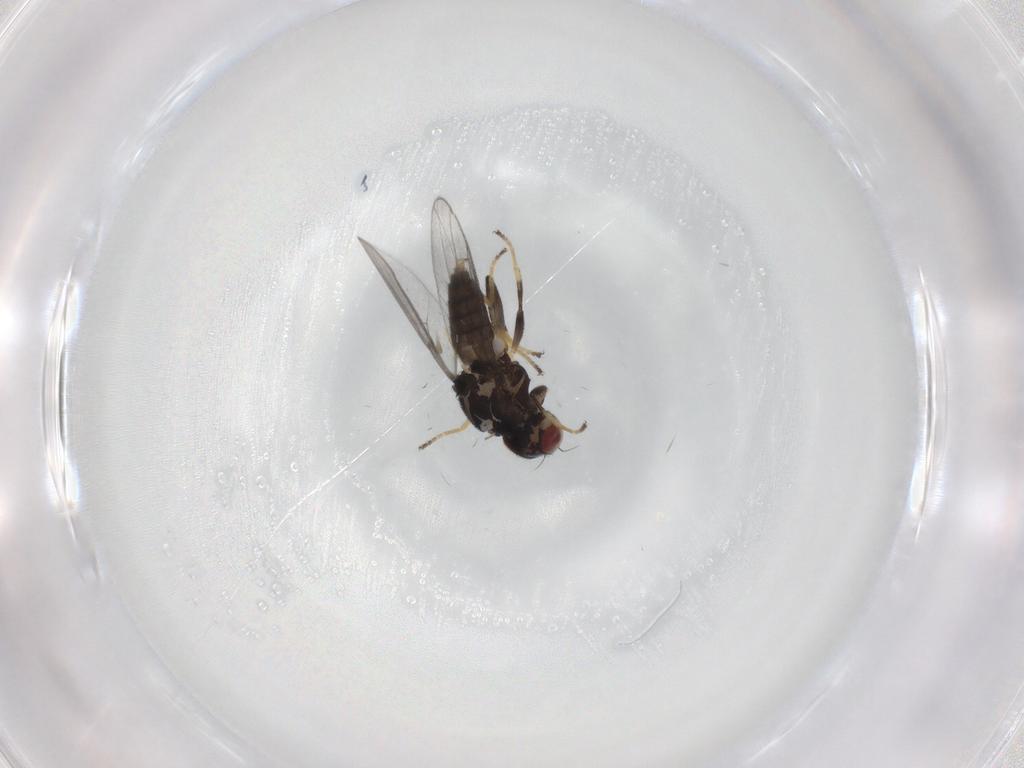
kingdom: Animalia
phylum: Arthropoda
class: Insecta
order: Diptera
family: Chloropidae
